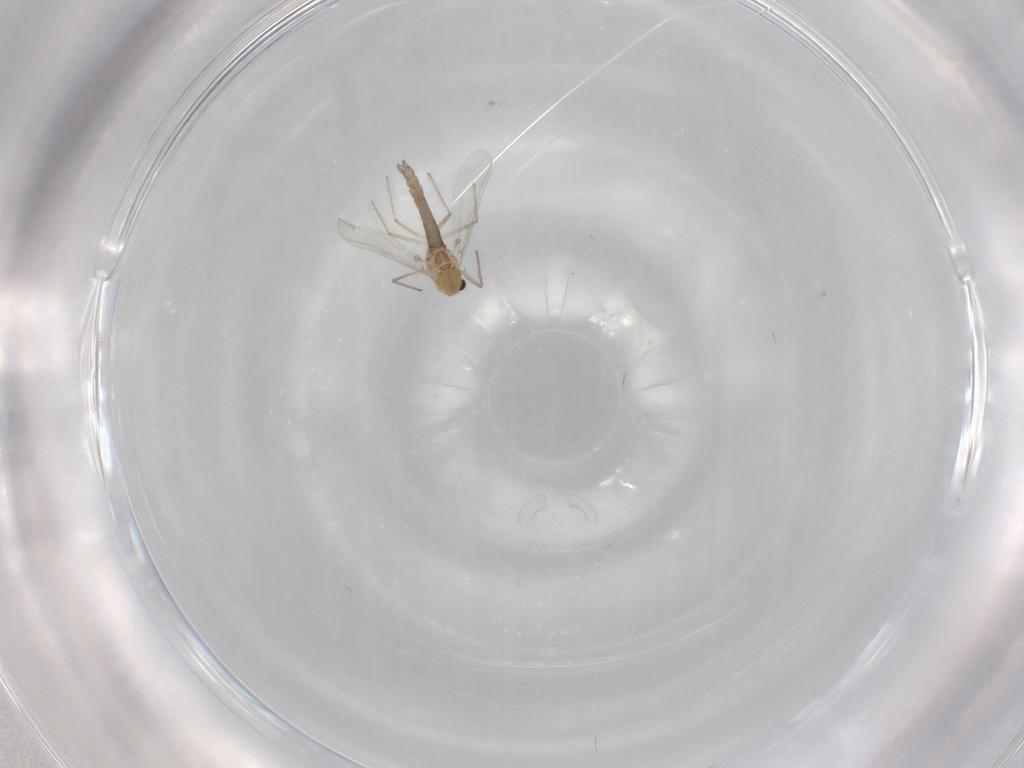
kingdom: Animalia
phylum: Arthropoda
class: Insecta
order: Diptera
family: Chironomidae
